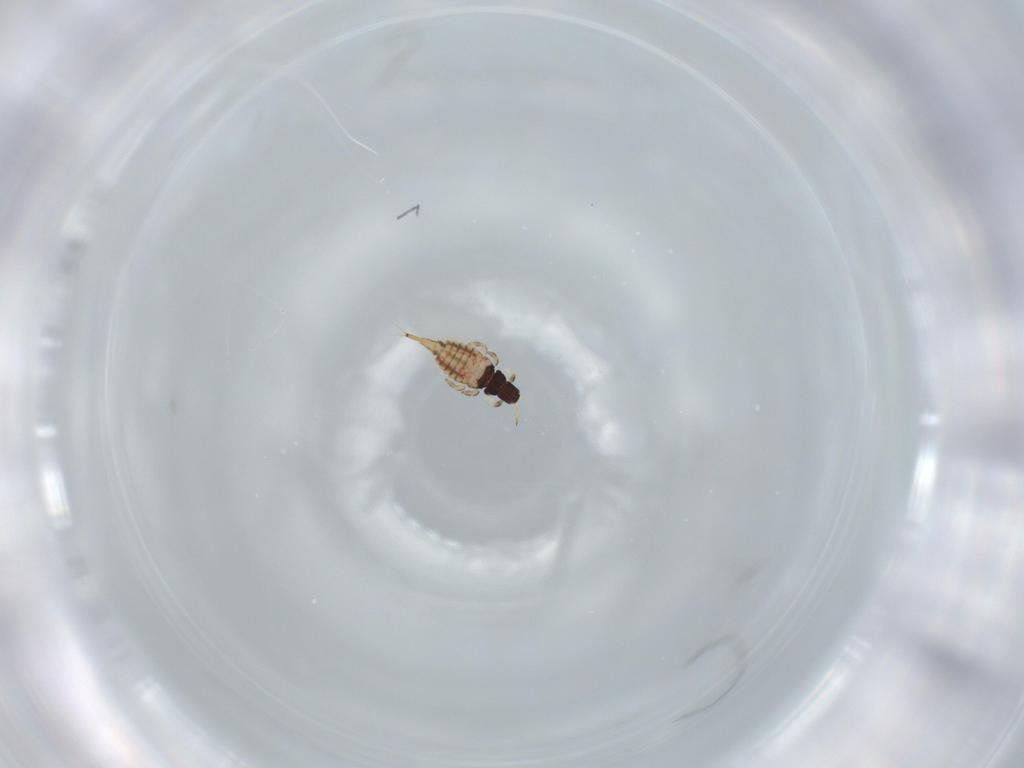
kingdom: Animalia
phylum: Arthropoda
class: Insecta
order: Thysanoptera
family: Phlaeothripidae
